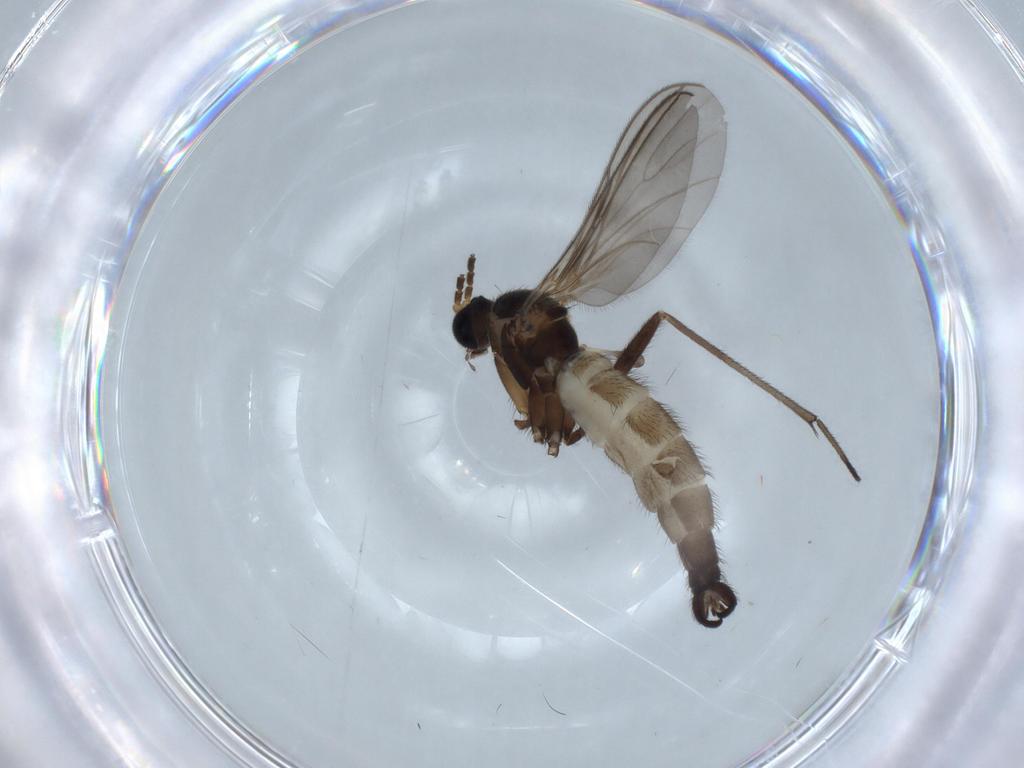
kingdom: Animalia
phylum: Arthropoda
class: Insecta
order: Diptera
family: Sciaridae
